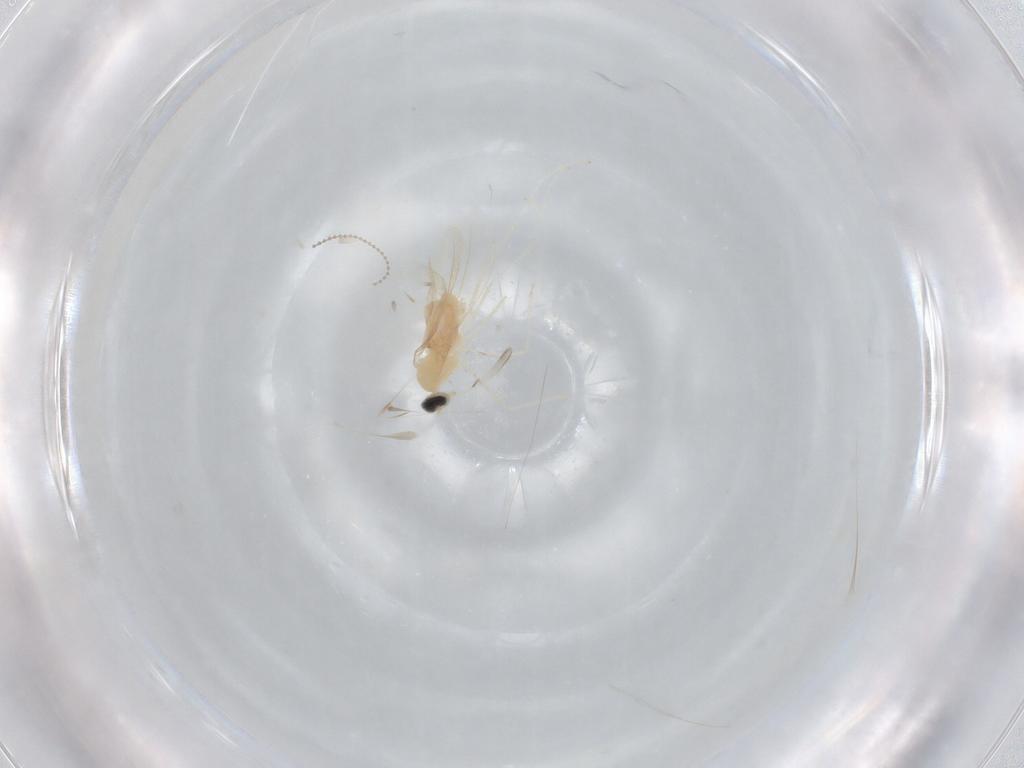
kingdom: Animalia
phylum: Arthropoda
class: Insecta
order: Diptera
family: Cecidomyiidae
